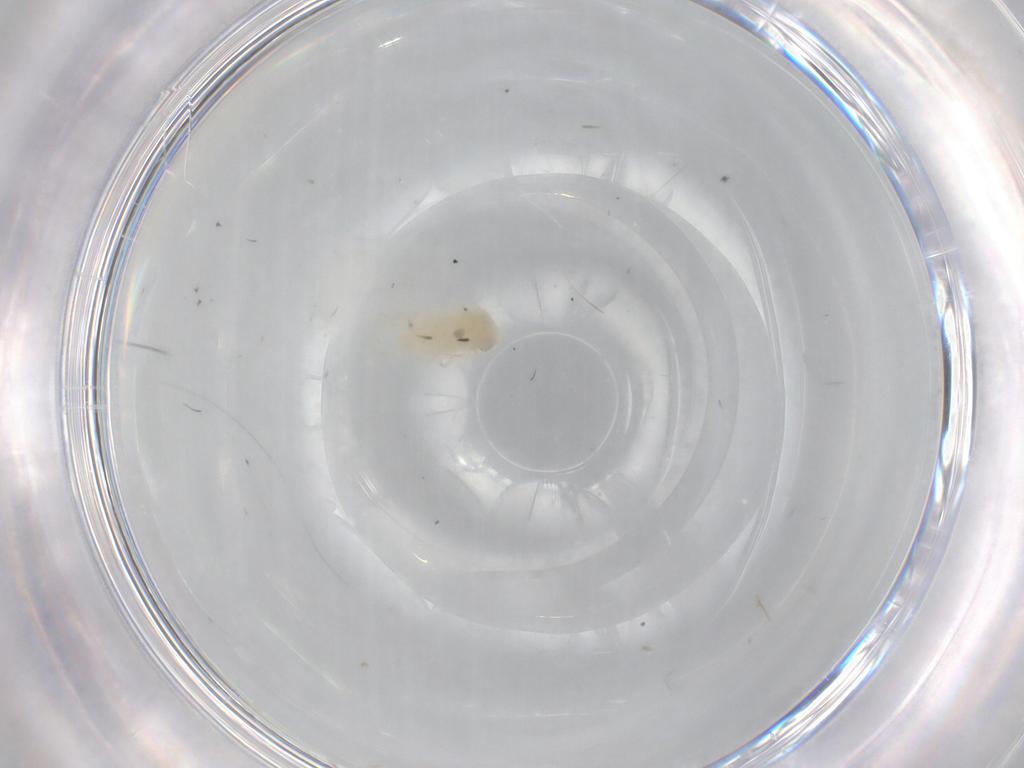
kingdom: Animalia
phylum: Arthropoda
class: Insecta
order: Hemiptera
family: Aleyrodidae
